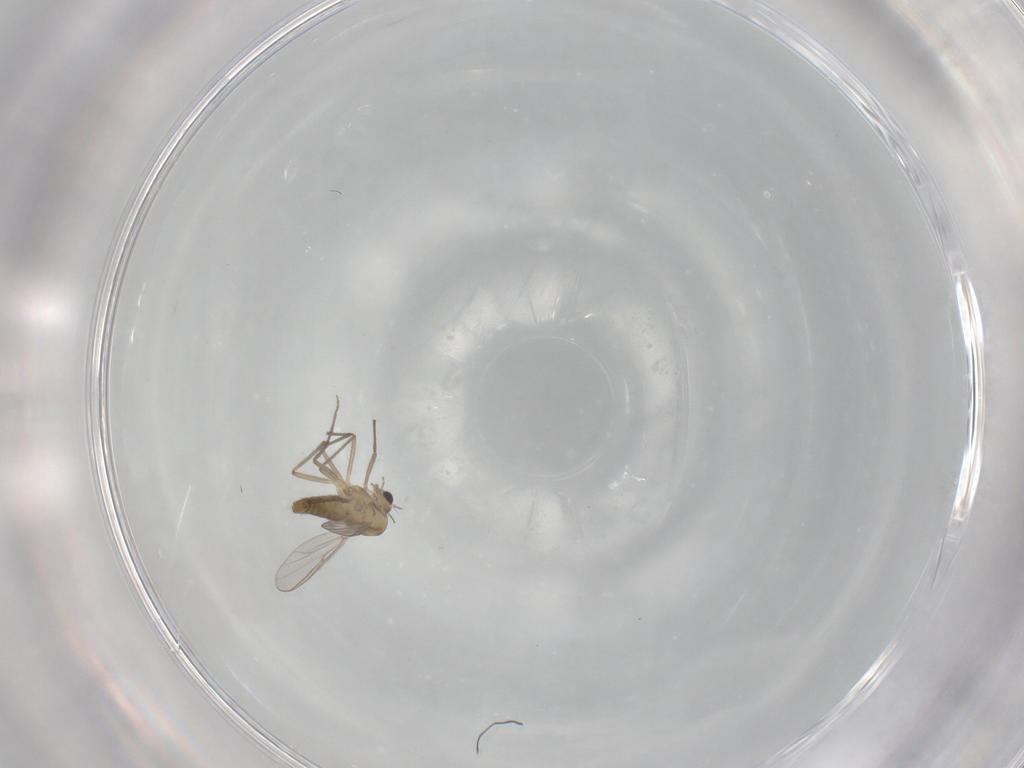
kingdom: Animalia
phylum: Arthropoda
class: Insecta
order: Diptera
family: Chironomidae
